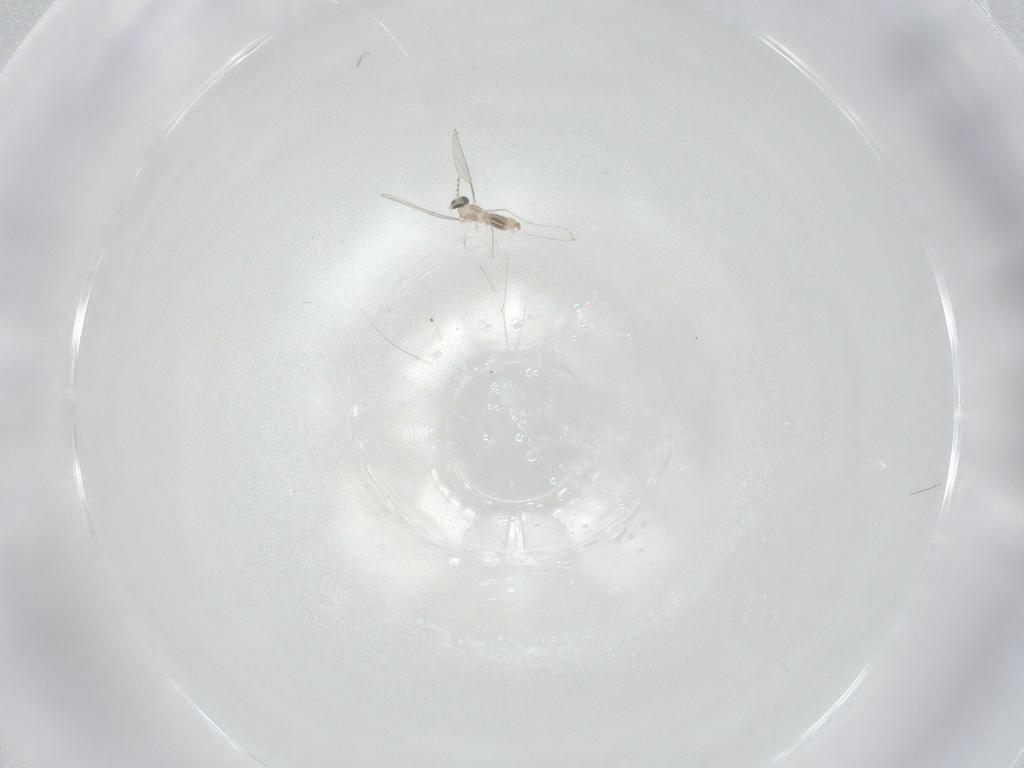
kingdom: Animalia
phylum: Arthropoda
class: Insecta
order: Diptera
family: Cecidomyiidae
